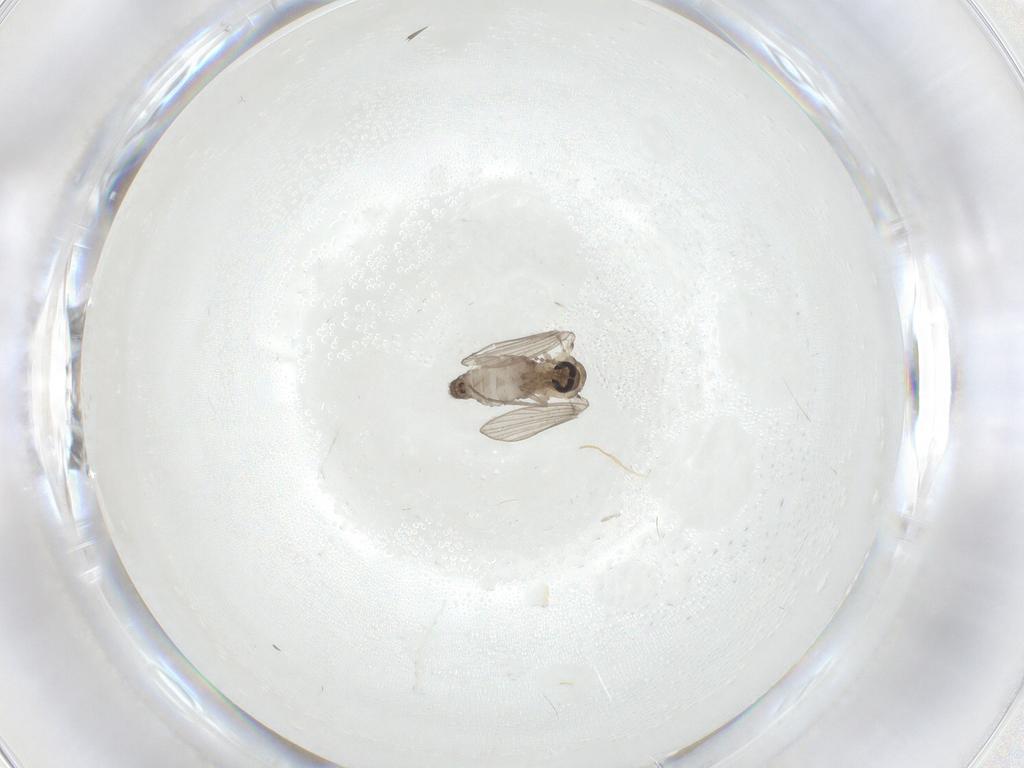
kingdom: Animalia
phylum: Arthropoda
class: Insecta
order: Diptera
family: Psychodidae
